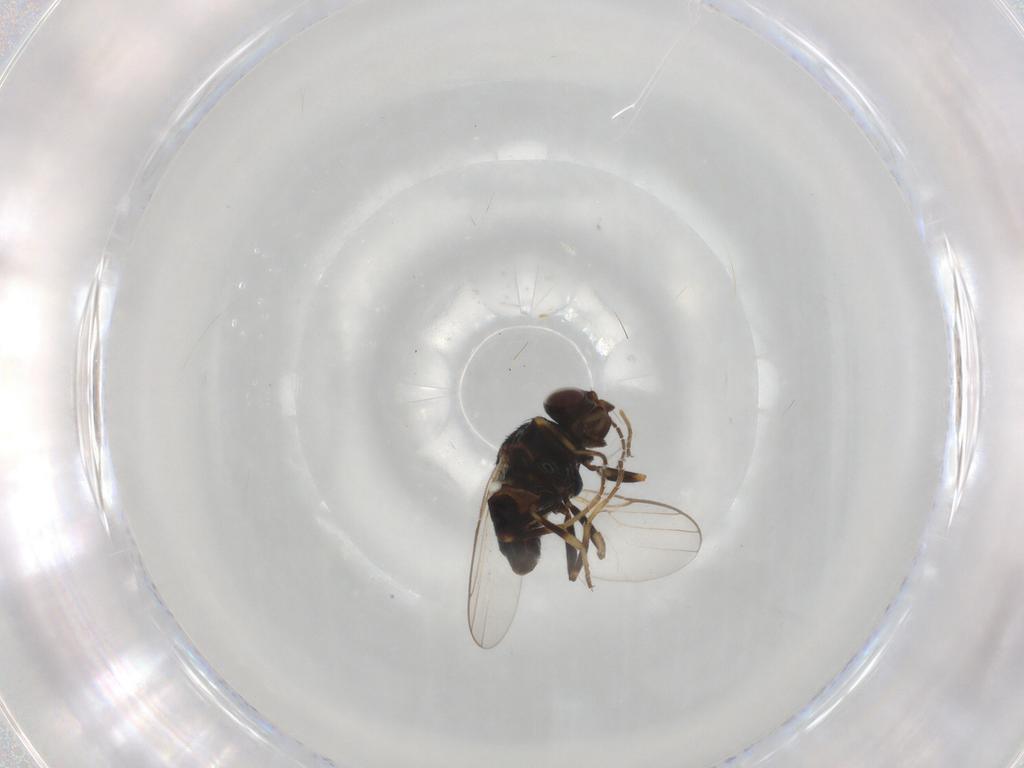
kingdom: Animalia
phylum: Arthropoda
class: Insecta
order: Diptera
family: Chloropidae
